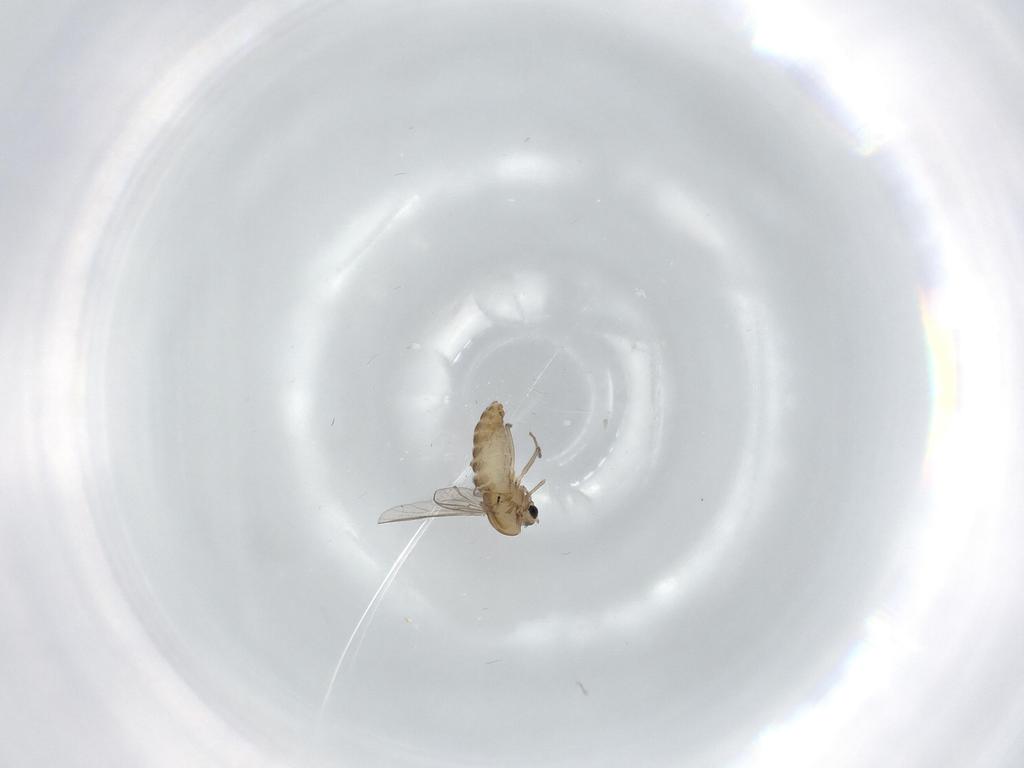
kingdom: Animalia
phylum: Arthropoda
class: Insecta
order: Diptera
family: Chironomidae
